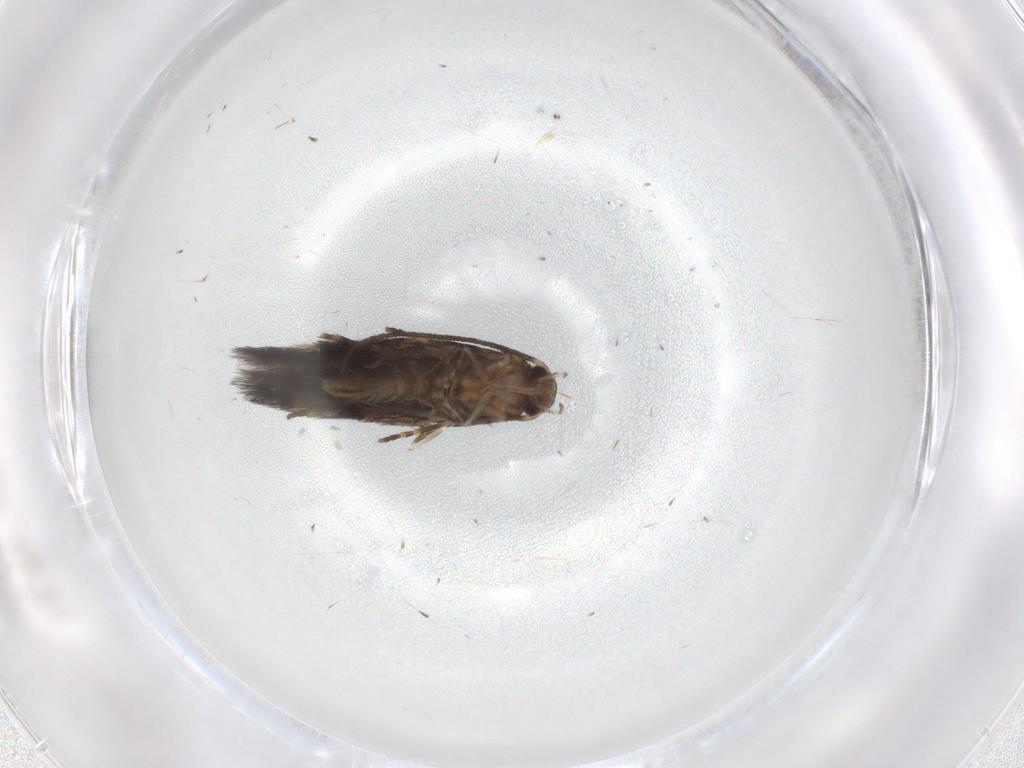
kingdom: Animalia
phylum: Arthropoda
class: Insecta
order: Lepidoptera
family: Elachistidae
